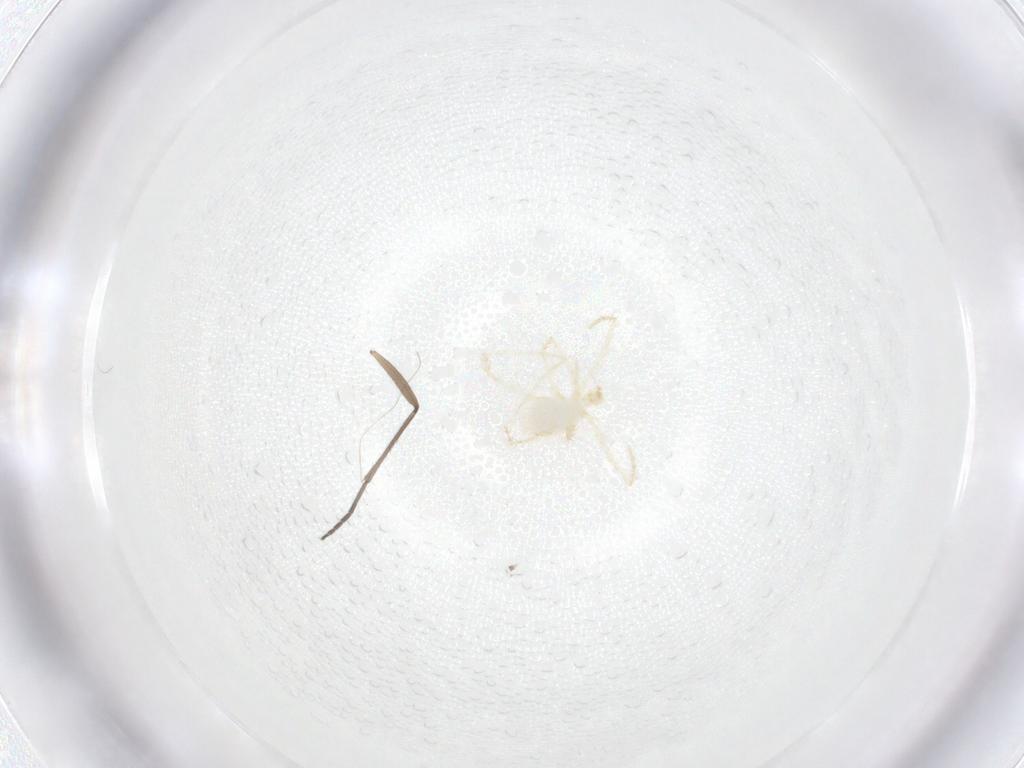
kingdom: Animalia
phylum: Arthropoda
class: Insecta
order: Diptera
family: Sciaridae
